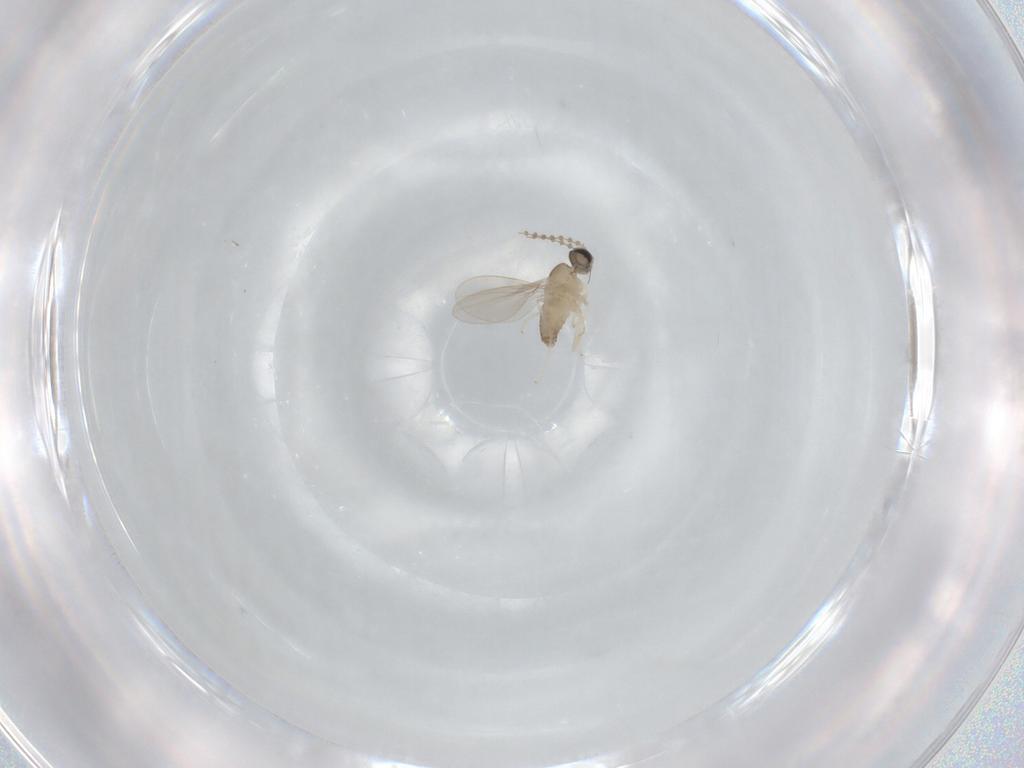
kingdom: Animalia
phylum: Arthropoda
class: Insecta
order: Diptera
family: Cecidomyiidae
